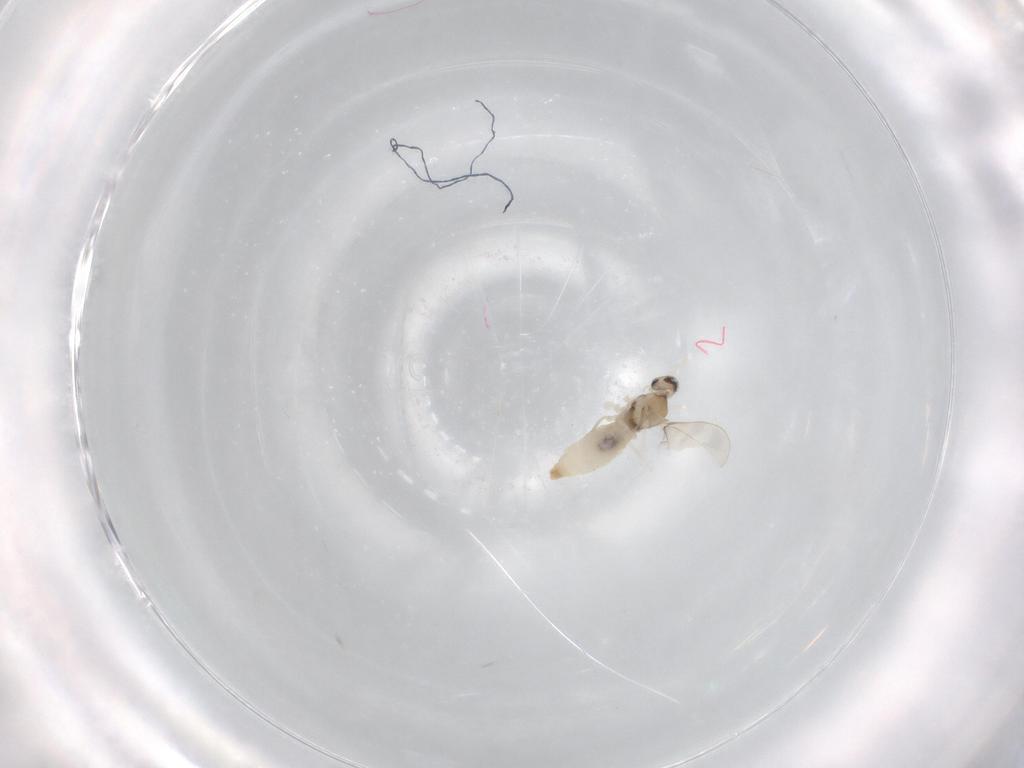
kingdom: Animalia
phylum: Arthropoda
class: Insecta
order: Diptera
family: Cecidomyiidae
